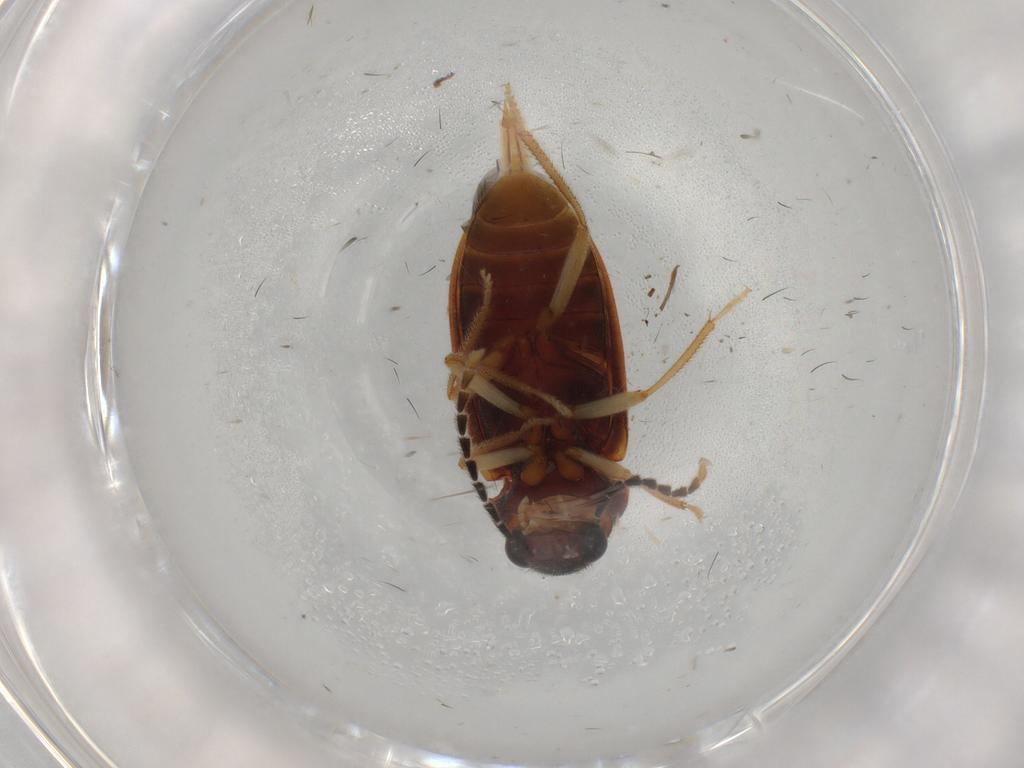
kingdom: Animalia
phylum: Arthropoda
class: Insecta
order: Coleoptera
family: Ptilodactylidae
